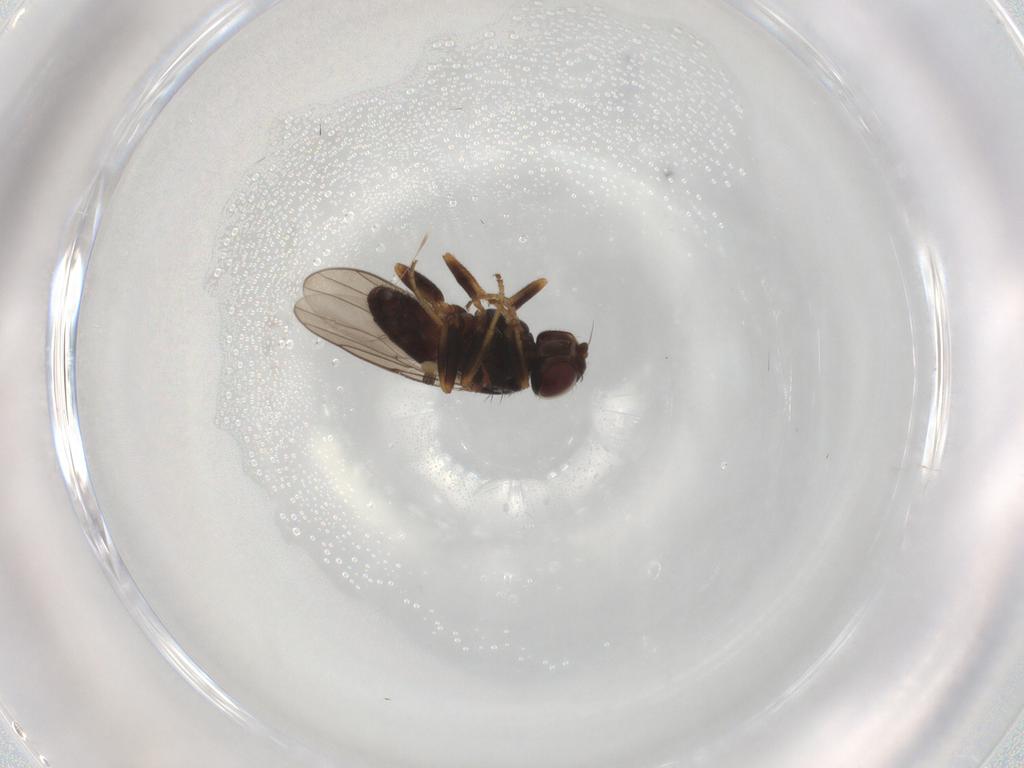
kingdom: Animalia
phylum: Arthropoda
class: Insecta
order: Diptera
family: Chloropidae
